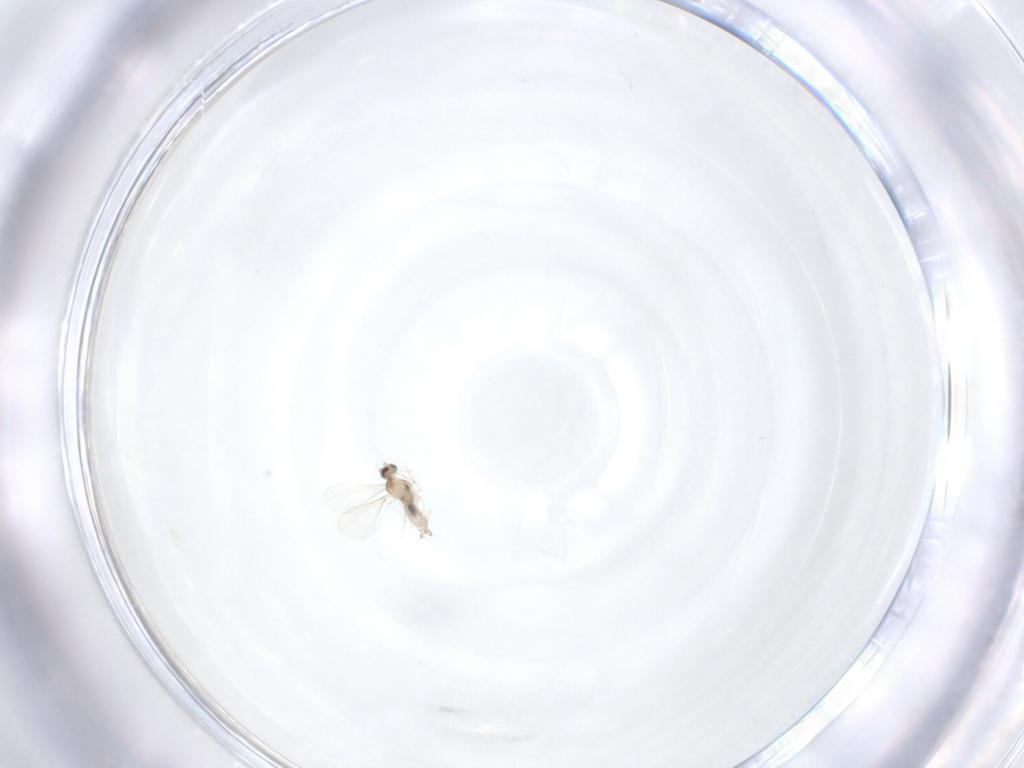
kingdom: Animalia
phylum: Arthropoda
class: Insecta
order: Diptera
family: Cecidomyiidae
